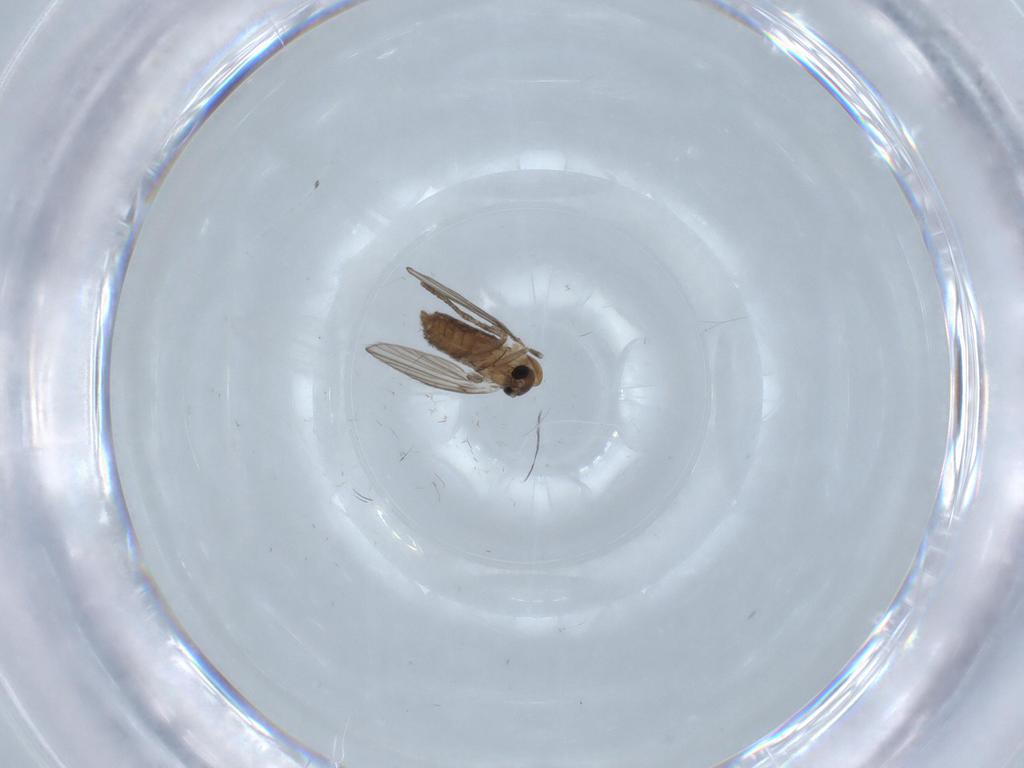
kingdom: Animalia
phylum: Arthropoda
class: Insecta
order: Diptera
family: Psychodidae
